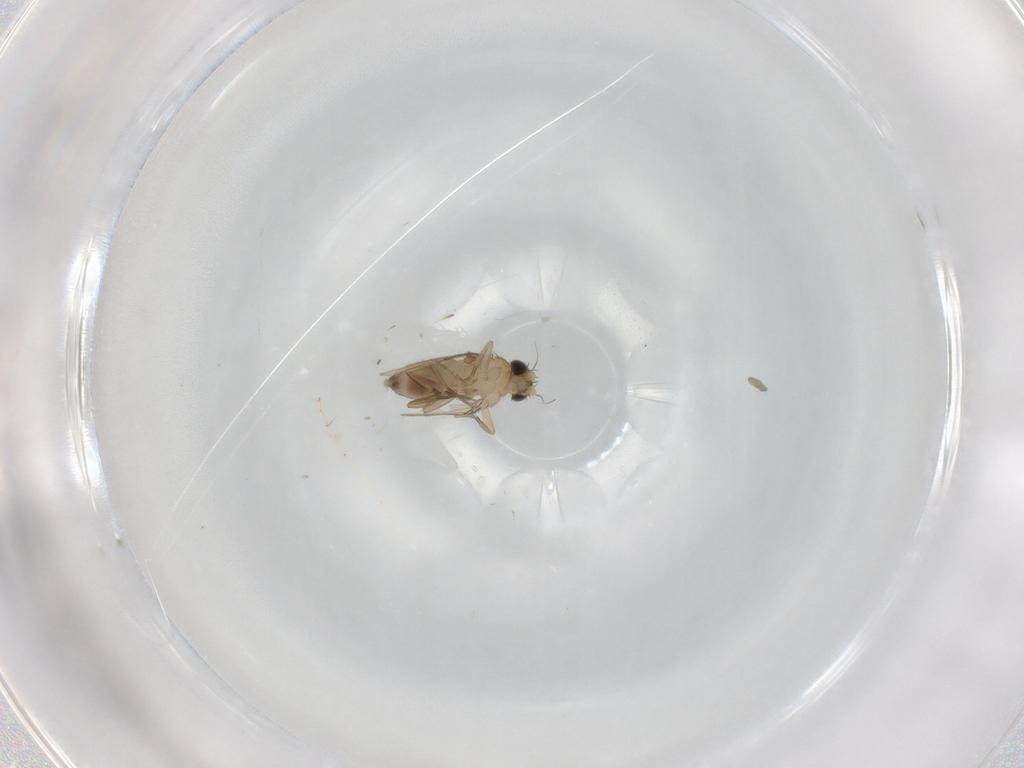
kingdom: Animalia
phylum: Arthropoda
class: Insecta
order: Diptera
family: Phoridae
